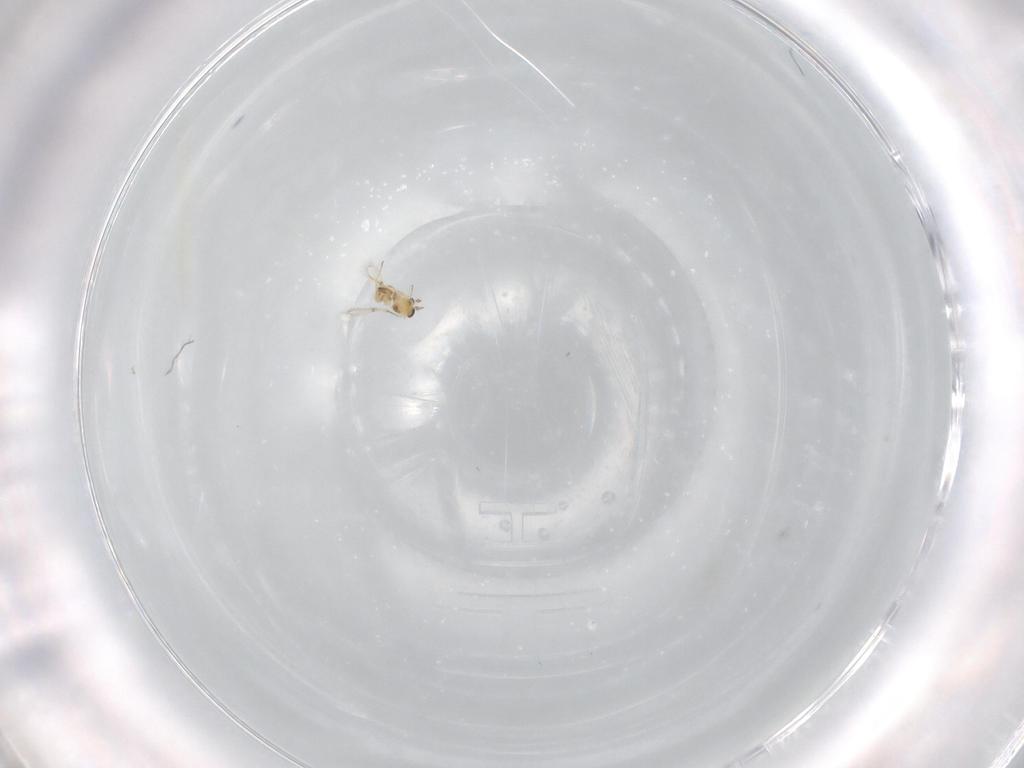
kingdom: Animalia
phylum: Arthropoda
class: Insecta
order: Hymenoptera
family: Trichogrammatidae
